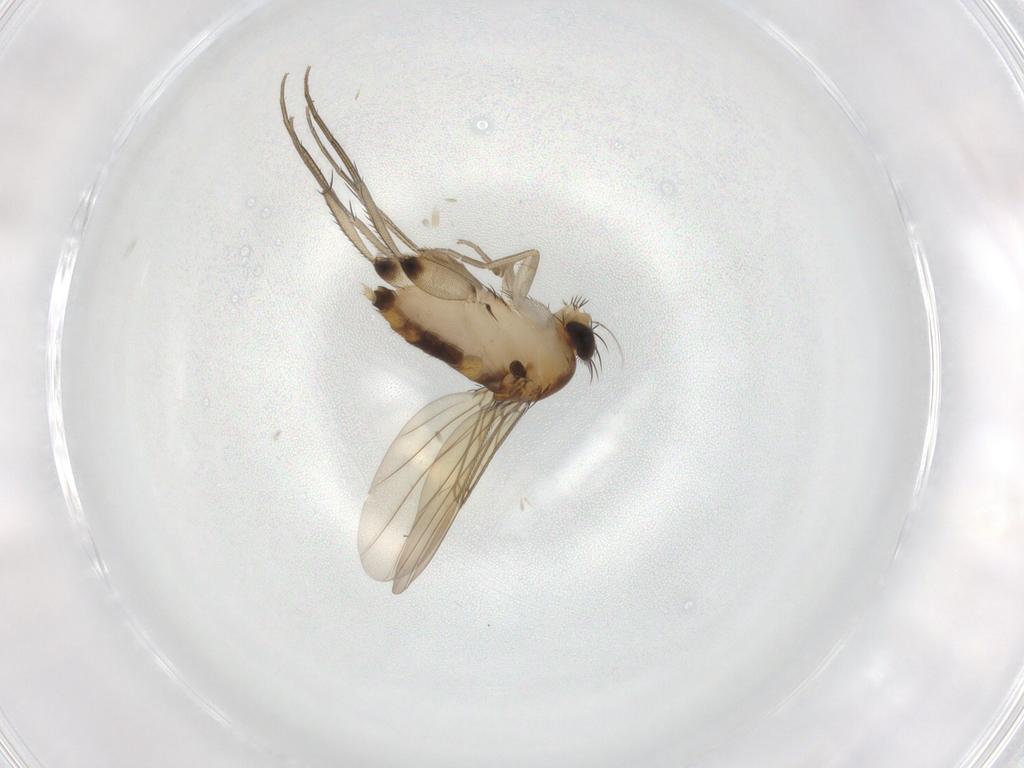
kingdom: Animalia
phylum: Arthropoda
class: Insecta
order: Diptera
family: Phoridae
